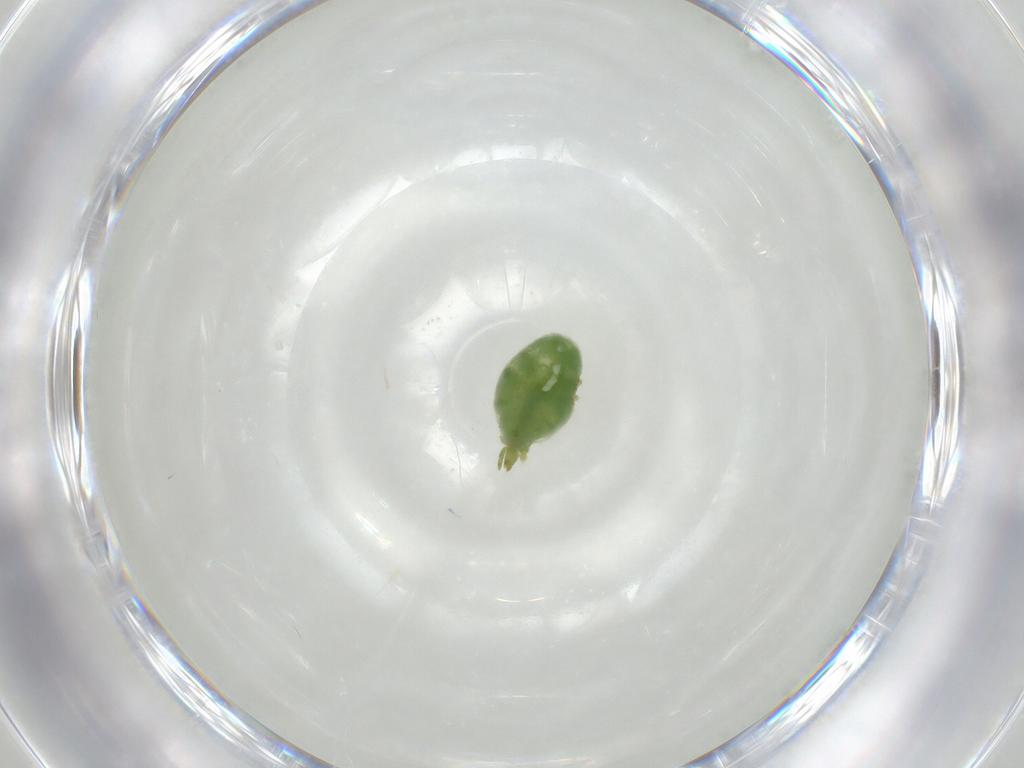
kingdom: Animalia
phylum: Arthropoda
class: Arachnida
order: Trombidiformes
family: Erythraeidae
